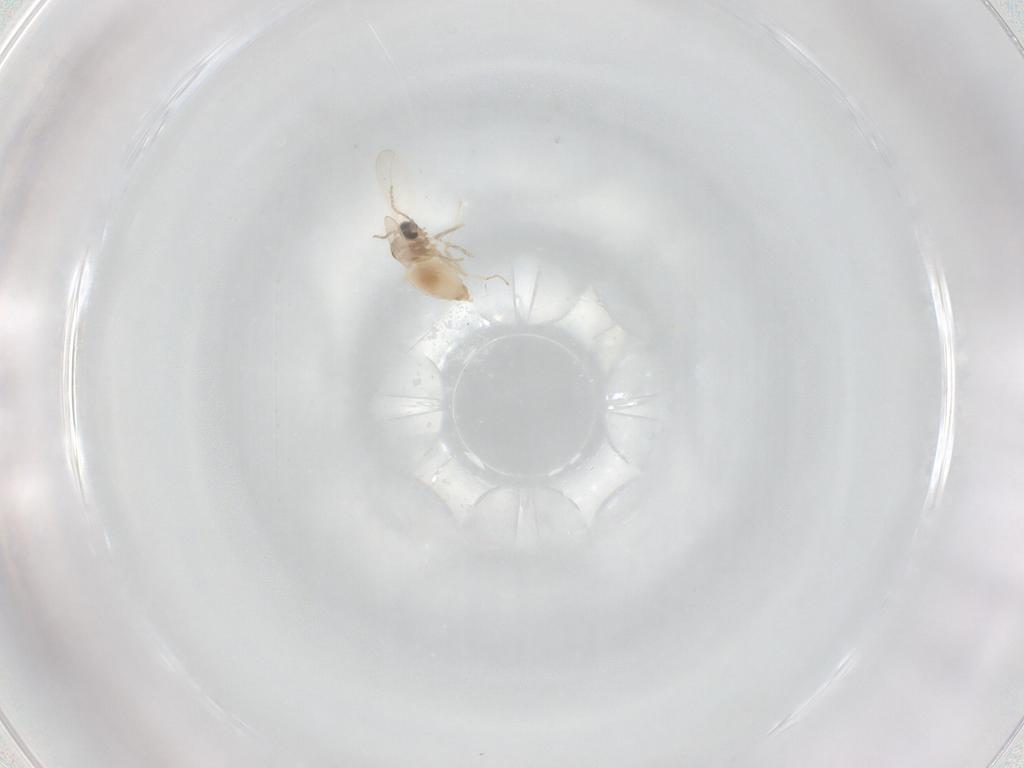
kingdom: Animalia
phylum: Arthropoda
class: Insecta
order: Diptera
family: Cecidomyiidae
